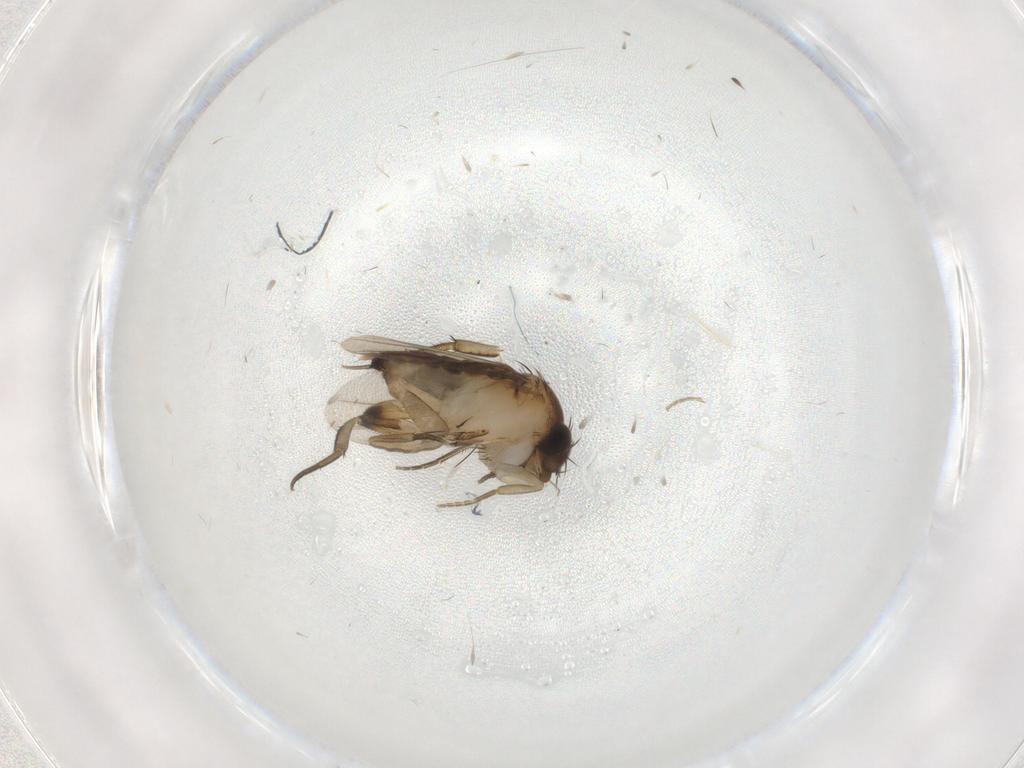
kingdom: Animalia
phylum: Arthropoda
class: Insecta
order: Diptera
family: Phoridae
